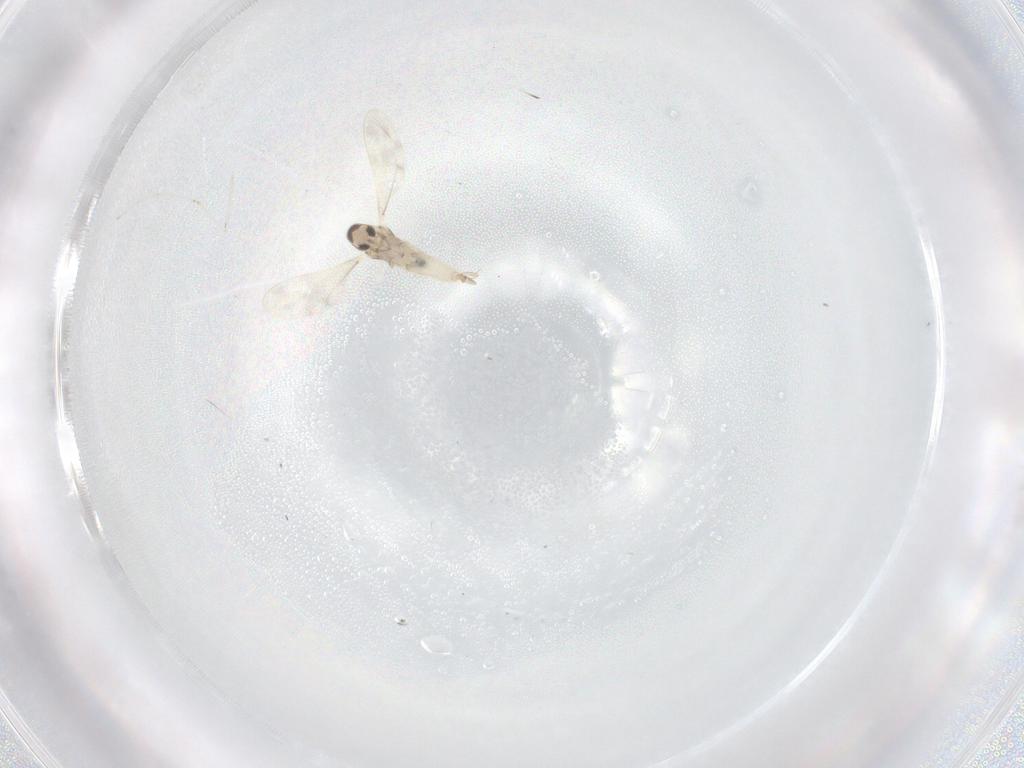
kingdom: Animalia
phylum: Arthropoda
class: Insecta
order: Diptera
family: Cecidomyiidae
